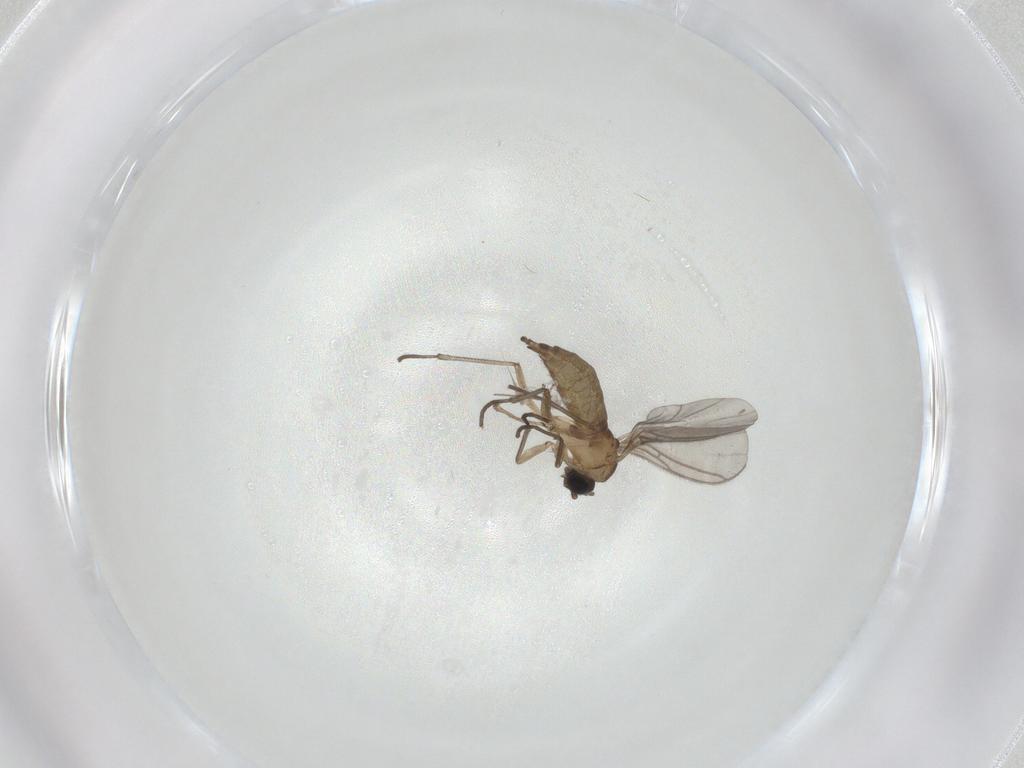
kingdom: Animalia
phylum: Arthropoda
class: Insecta
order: Diptera
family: Sciaridae
